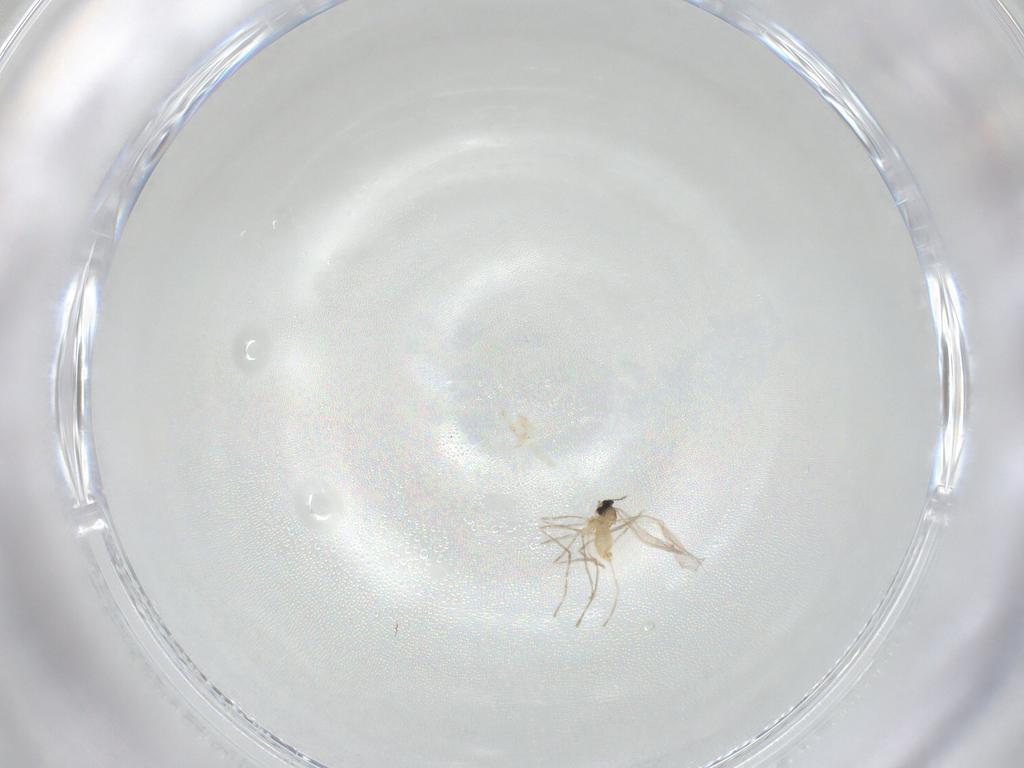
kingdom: Animalia
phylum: Arthropoda
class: Insecta
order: Diptera
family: Cecidomyiidae
